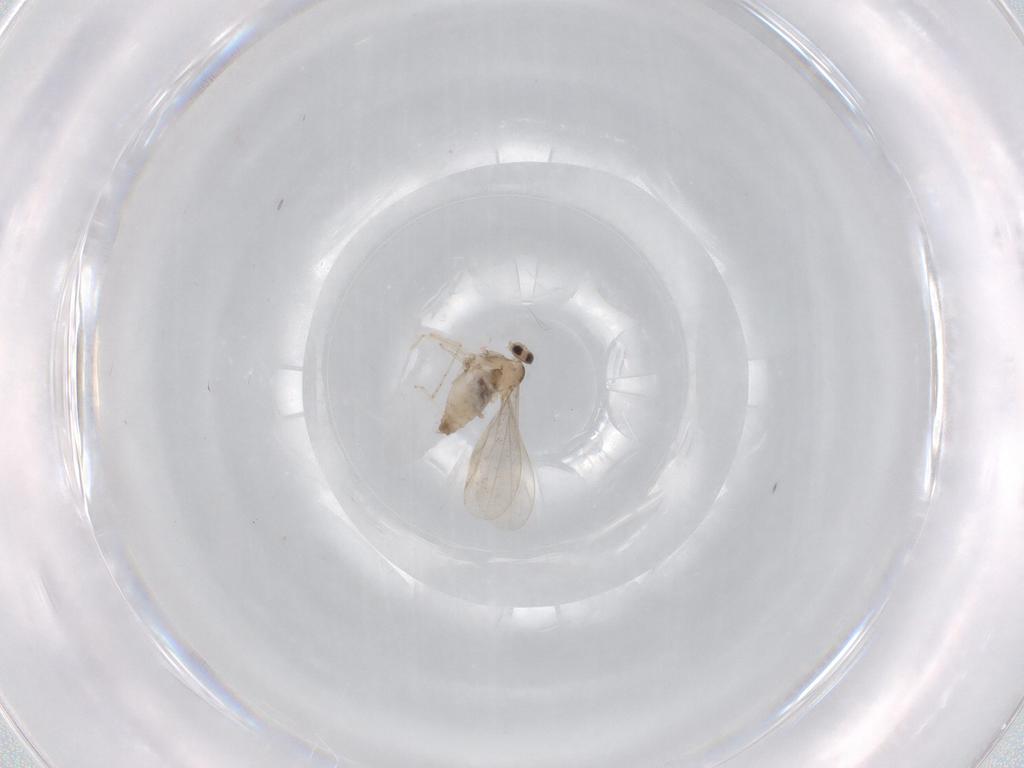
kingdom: Animalia
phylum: Arthropoda
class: Insecta
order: Diptera
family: Cecidomyiidae
